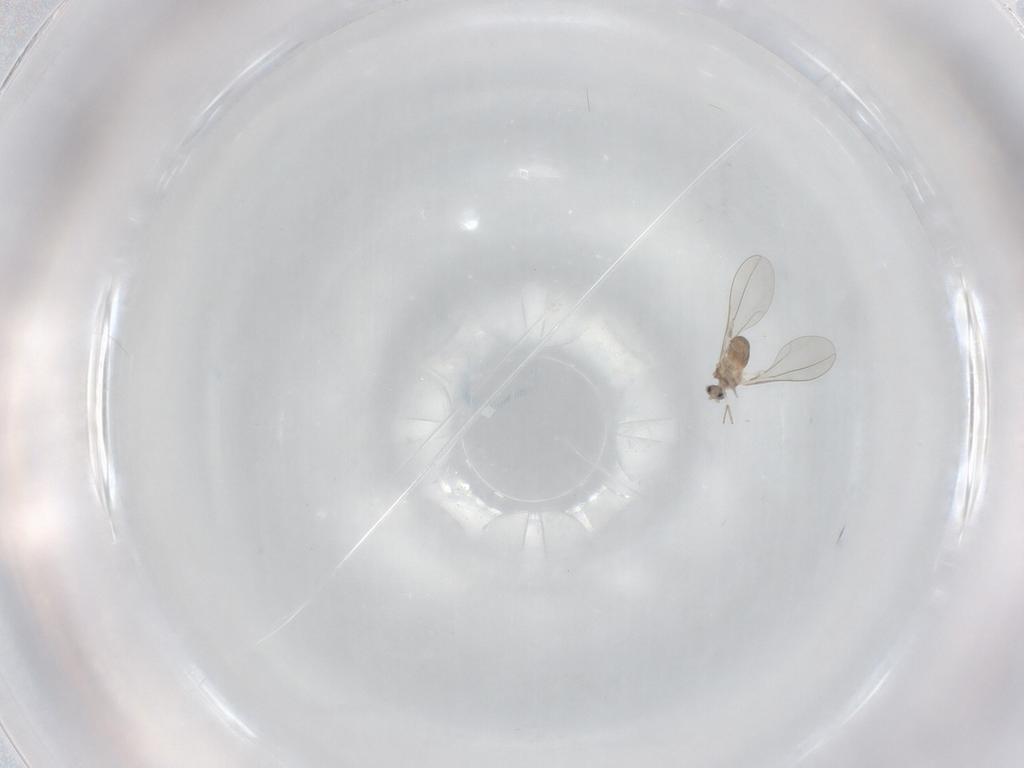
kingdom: Animalia
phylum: Arthropoda
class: Insecta
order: Diptera
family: Cecidomyiidae
